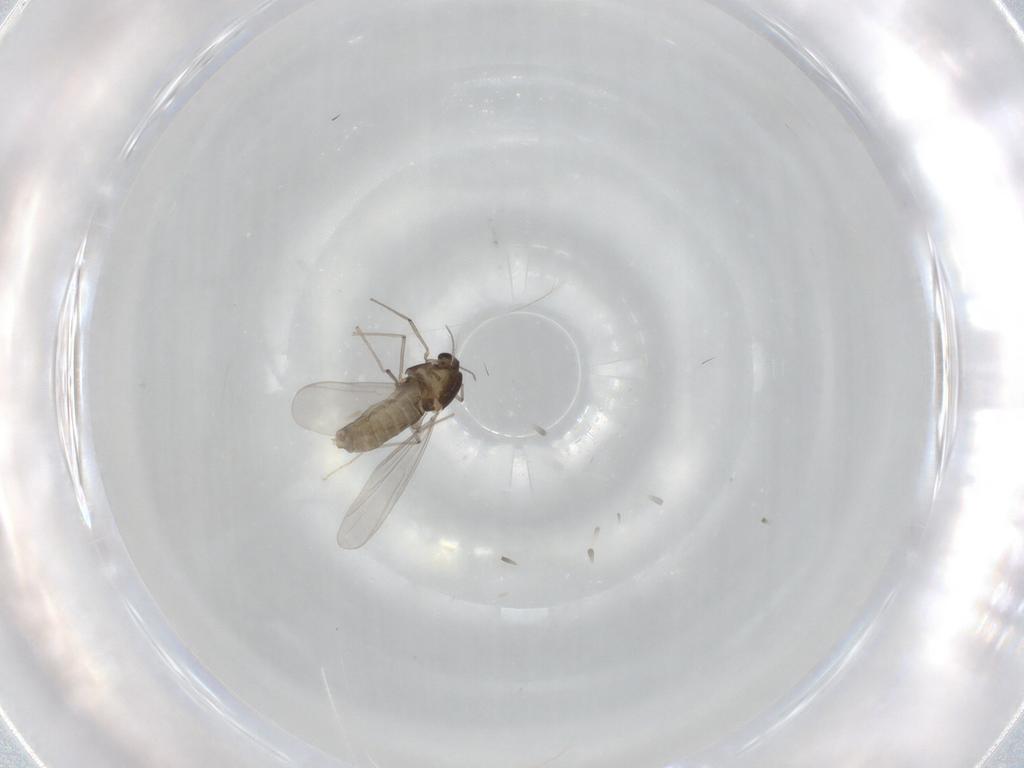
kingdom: Animalia
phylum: Arthropoda
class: Insecta
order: Diptera
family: Chironomidae
